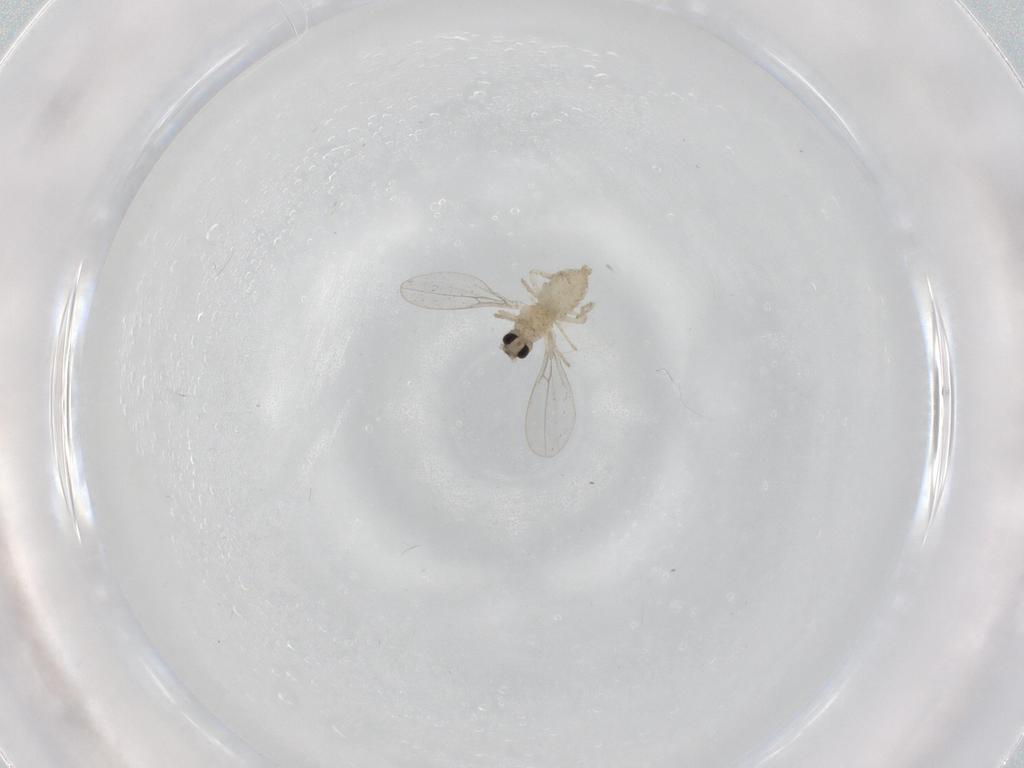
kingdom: Animalia
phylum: Arthropoda
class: Insecta
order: Diptera
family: Cecidomyiidae
